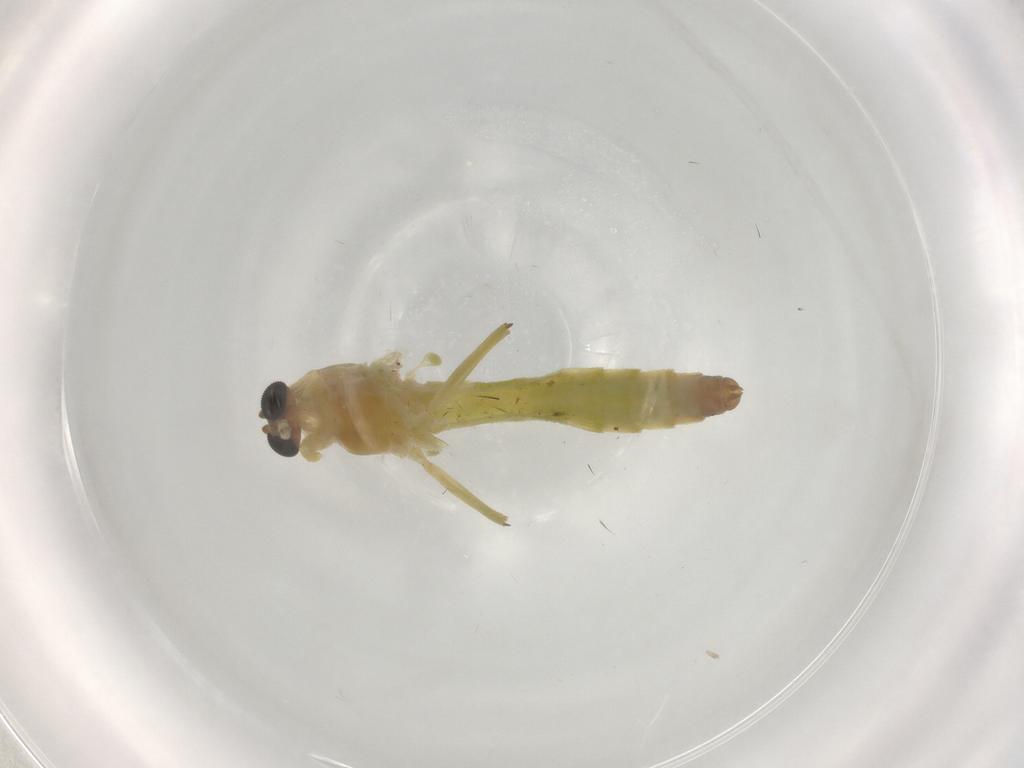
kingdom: Animalia
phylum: Arthropoda
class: Insecta
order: Diptera
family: Chironomidae
